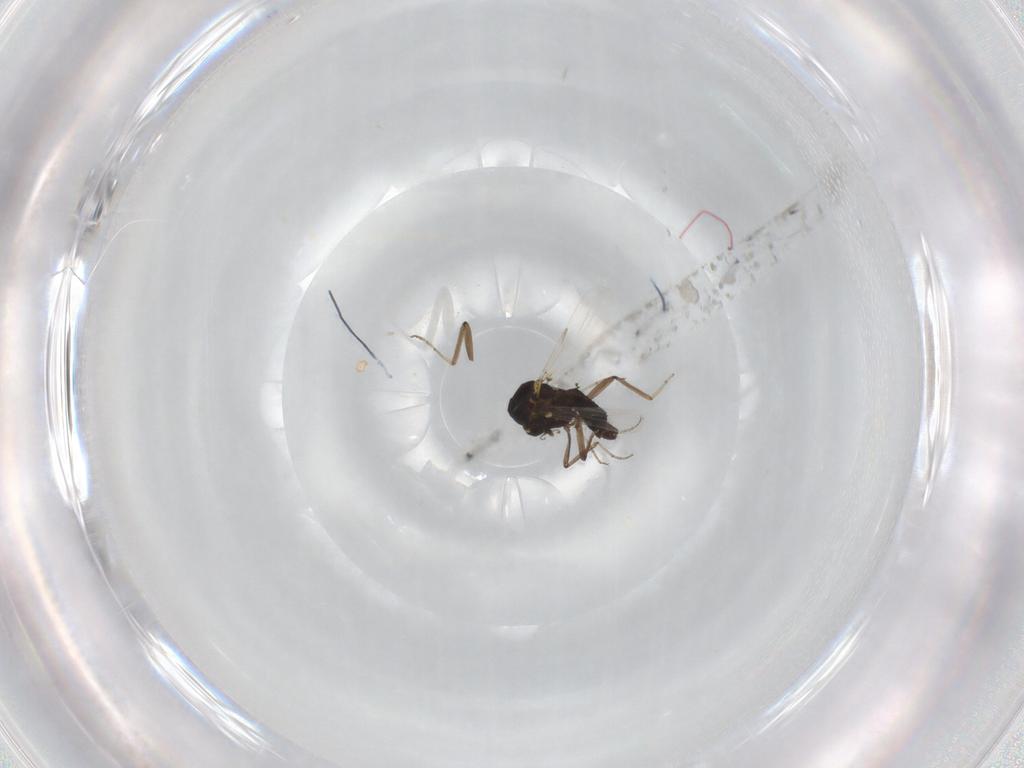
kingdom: Animalia
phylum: Arthropoda
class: Insecta
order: Diptera
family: Ceratopogonidae
